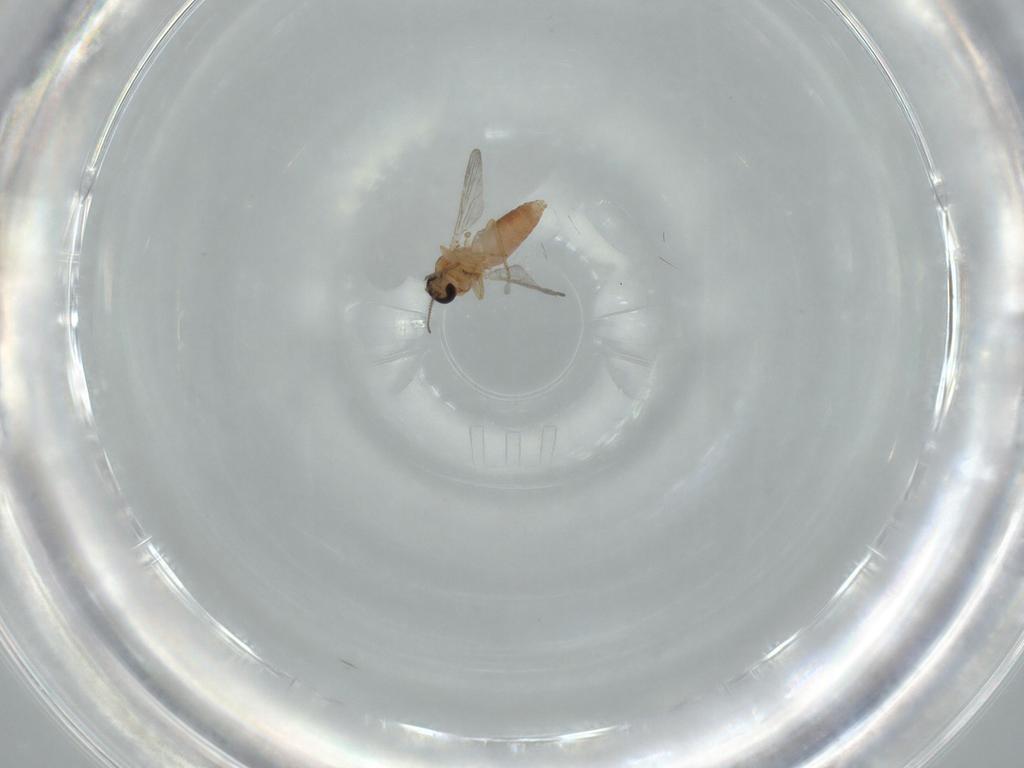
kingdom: Animalia
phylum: Arthropoda
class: Insecta
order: Diptera
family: Ceratopogonidae
